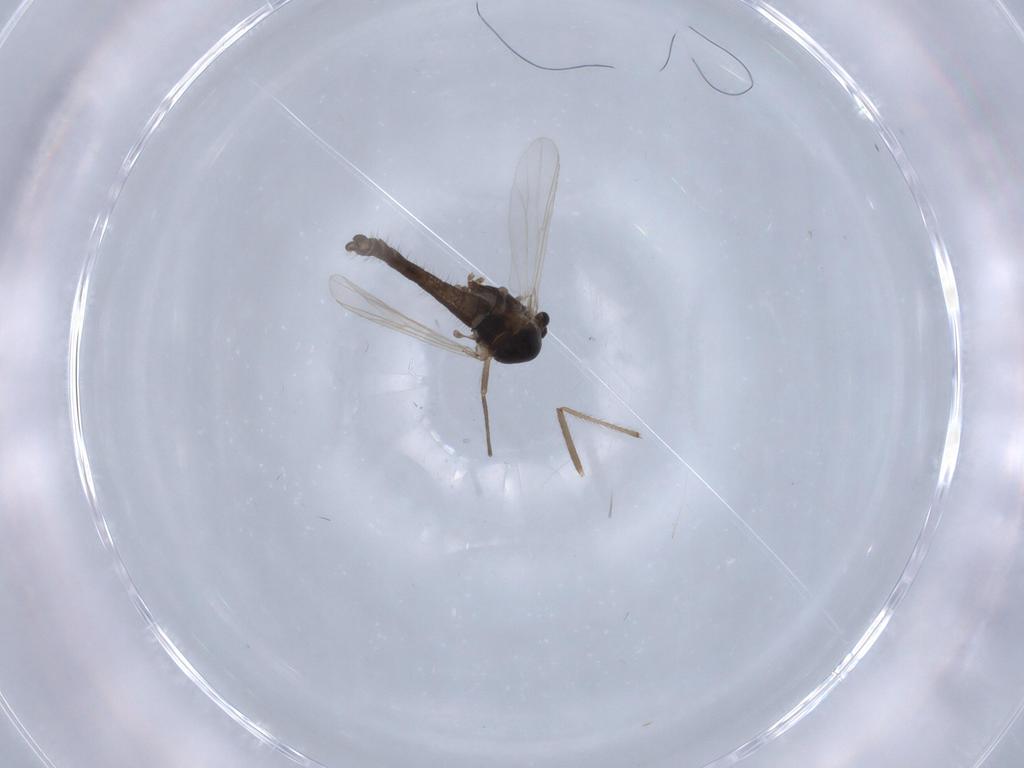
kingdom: Animalia
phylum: Arthropoda
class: Insecta
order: Diptera
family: Chironomidae
